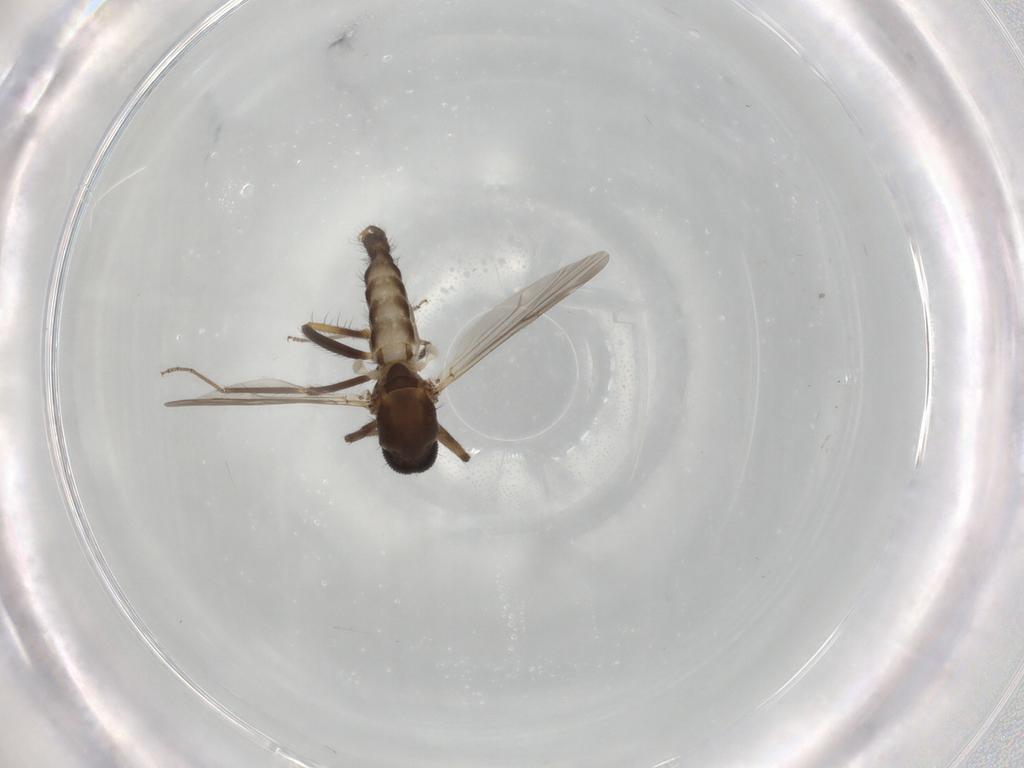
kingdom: Animalia
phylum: Arthropoda
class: Insecta
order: Diptera
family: Ceratopogonidae
